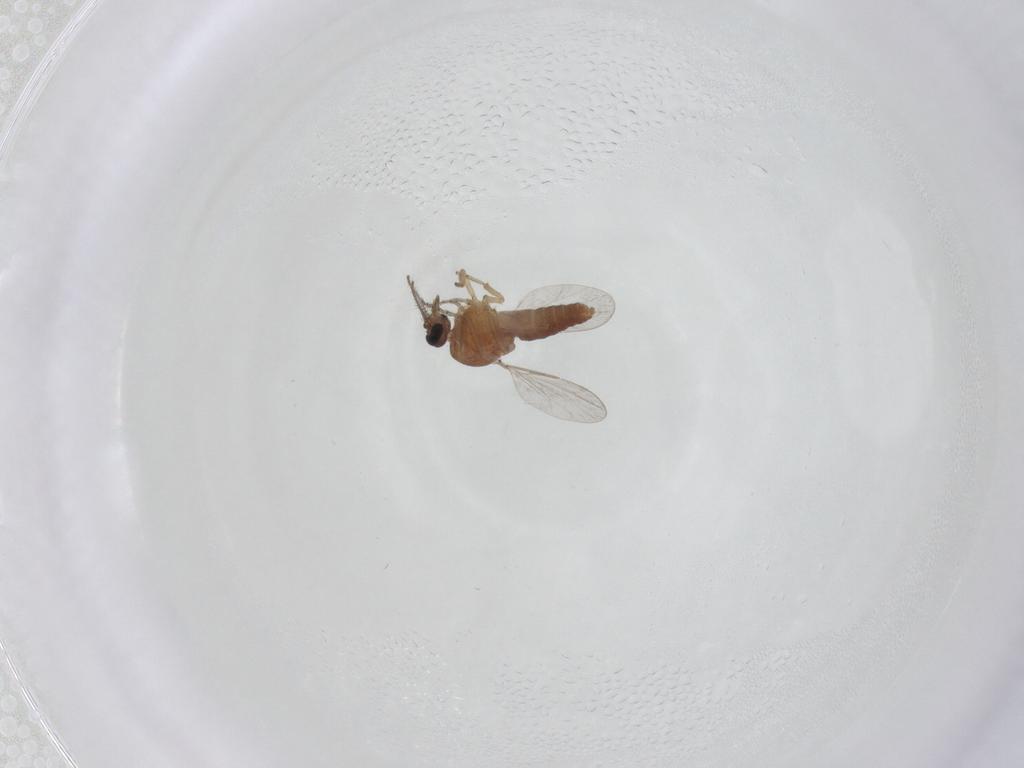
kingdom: Animalia
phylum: Arthropoda
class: Insecta
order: Diptera
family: Ceratopogonidae
